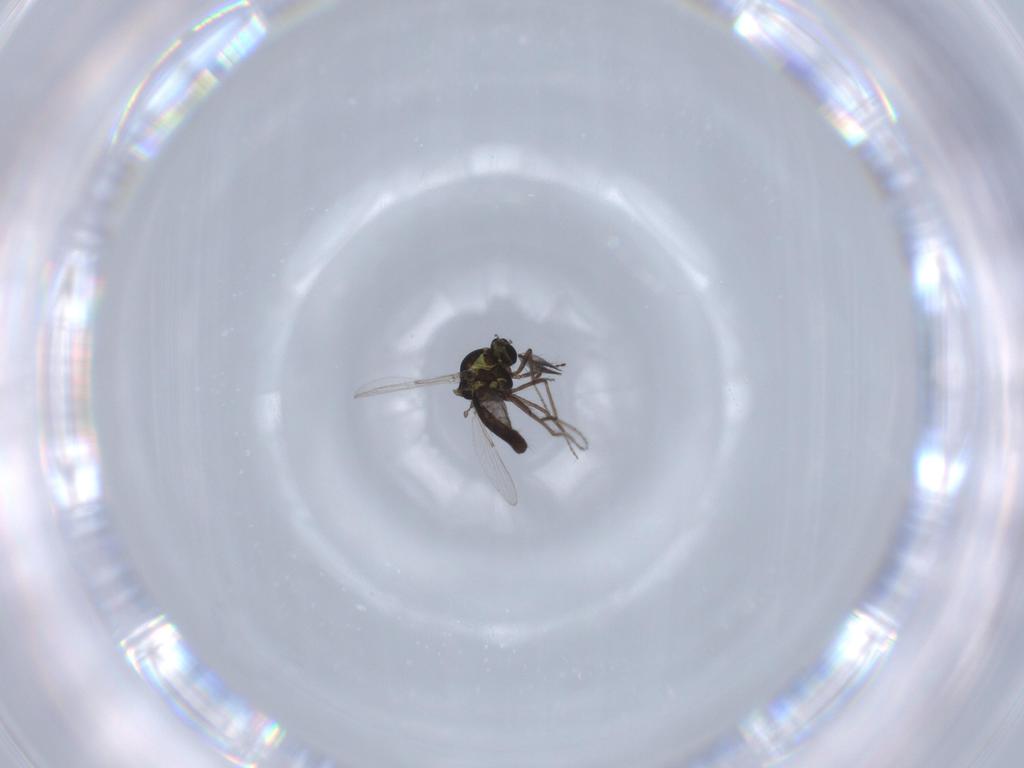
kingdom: Animalia
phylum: Arthropoda
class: Insecta
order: Diptera
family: Ceratopogonidae
